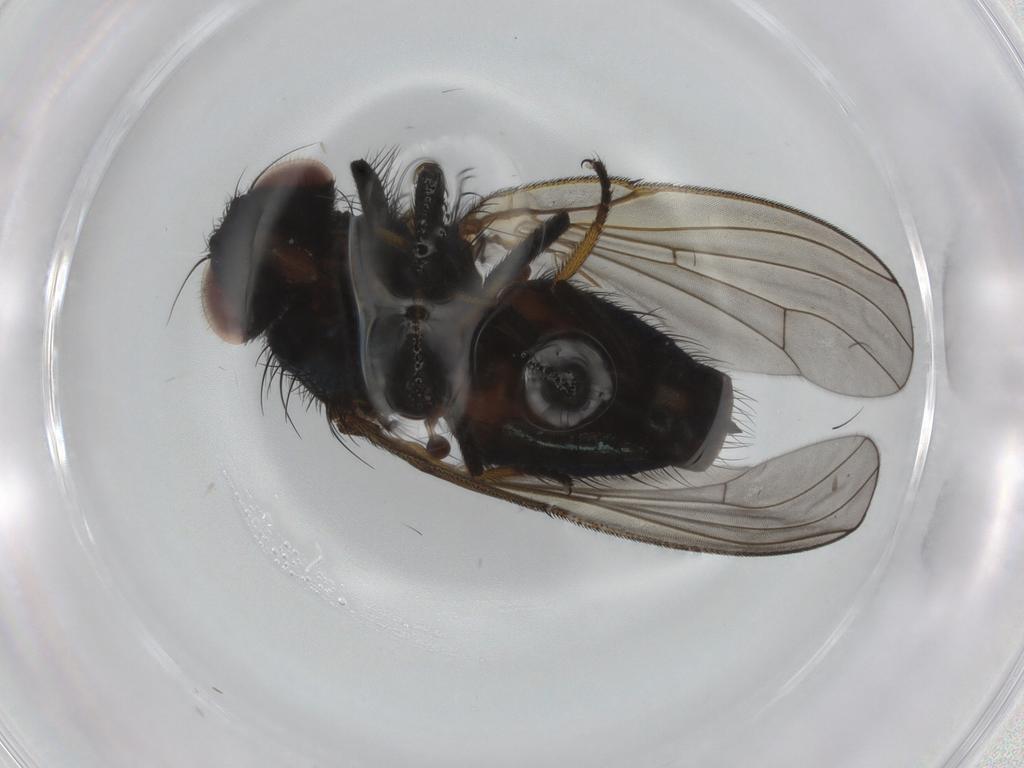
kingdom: Animalia
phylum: Arthropoda
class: Insecta
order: Diptera
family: Lonchaeidae
